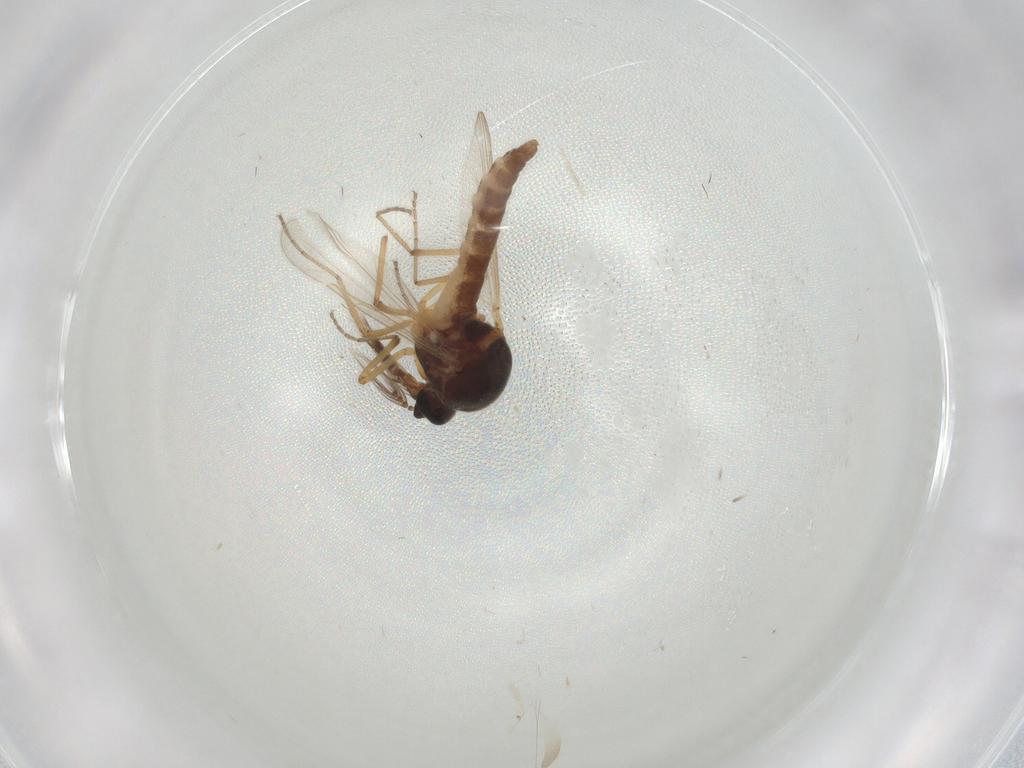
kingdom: Animalia
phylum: Arthropoda
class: Insecta
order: Diptera
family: Ceratopogonidae
